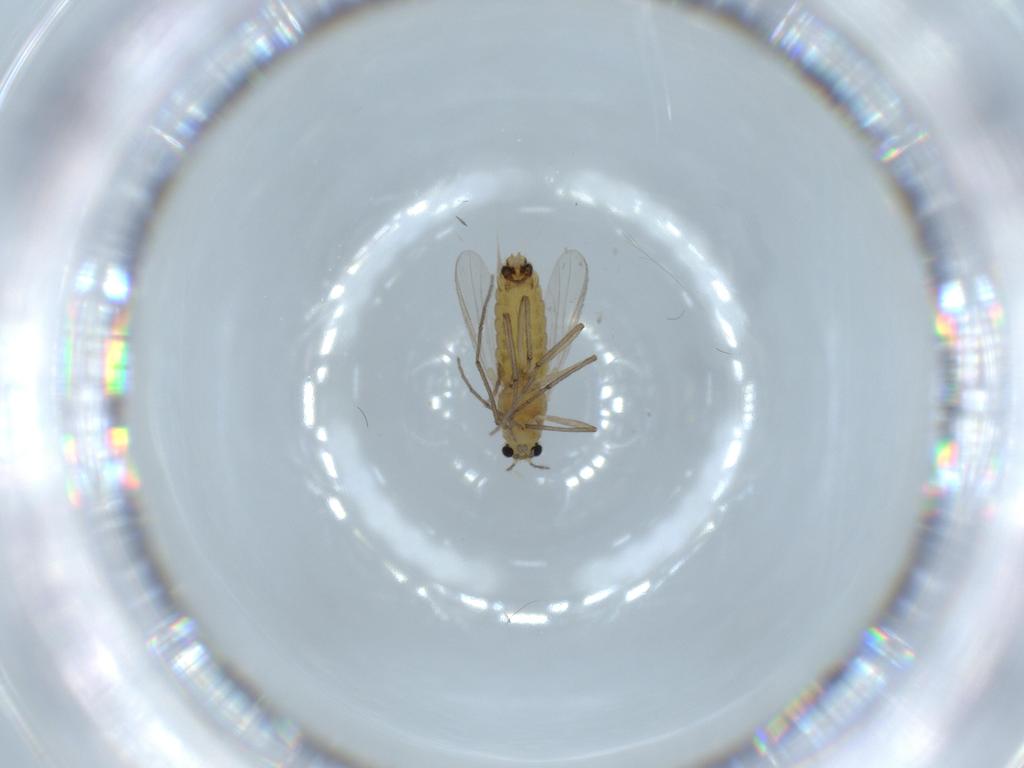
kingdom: Animalia
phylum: Arthropoda
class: Insecta
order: Diptera
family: Chironomidae
